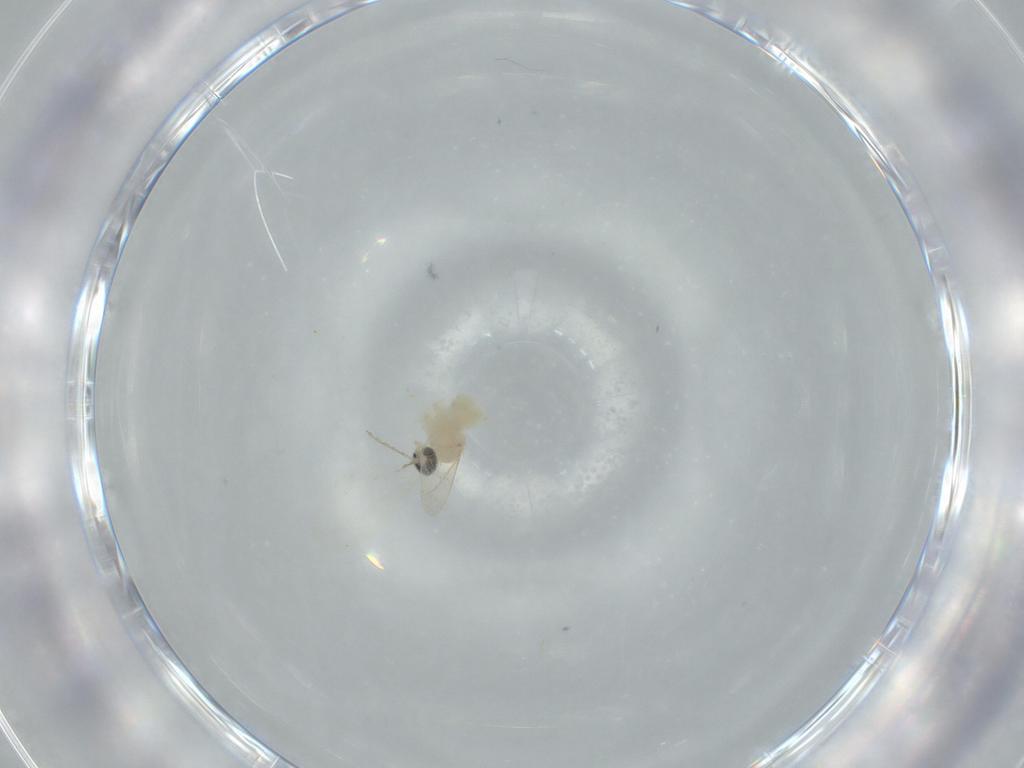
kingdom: Animalia
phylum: Arthropoda
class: Insecta
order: Diptera
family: Cecidomyiidae
